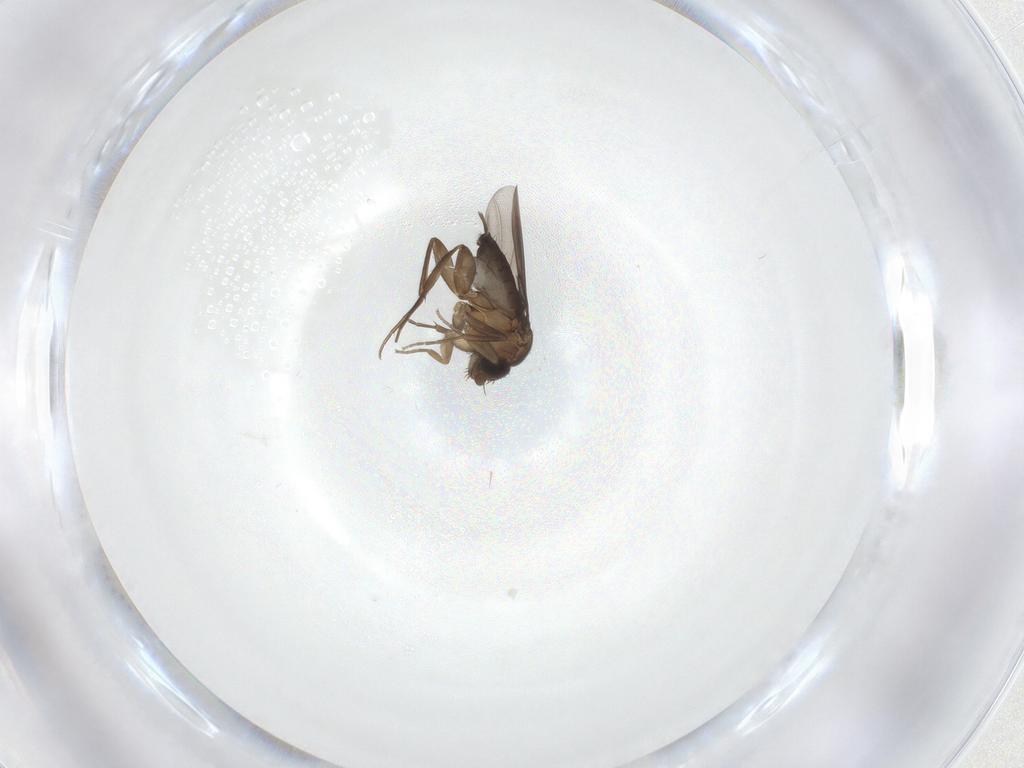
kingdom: Animalia
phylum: Arthropoda
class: Insecta
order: Diptera
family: Phoridae
